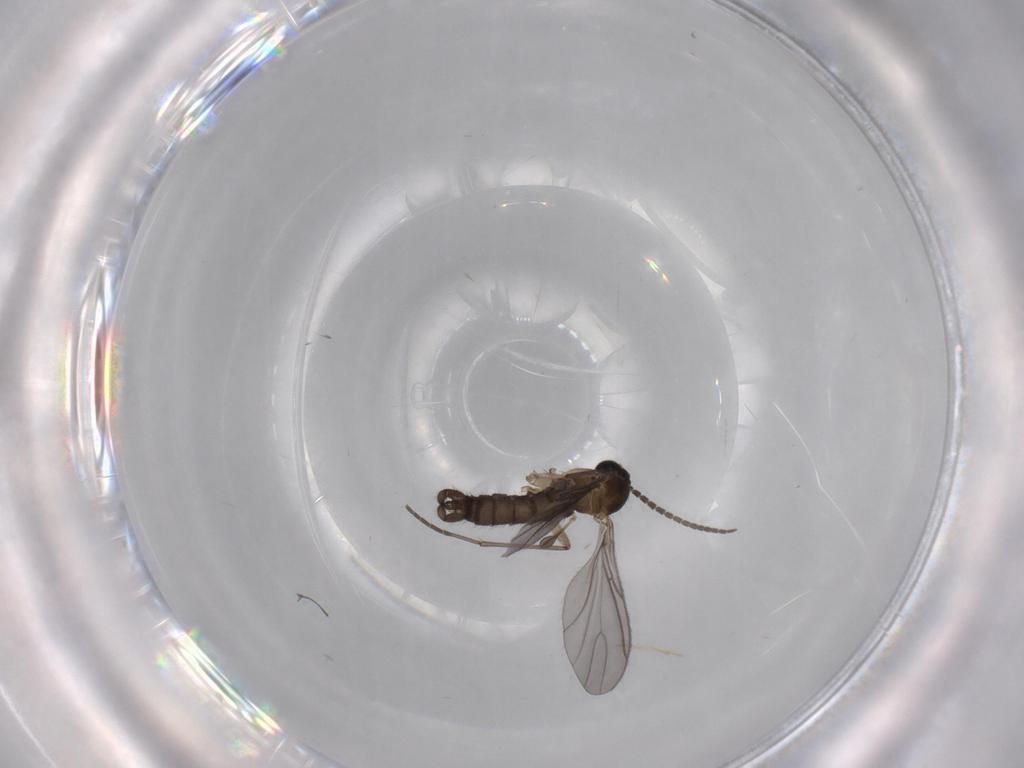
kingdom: Animalia
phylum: Arthropoda
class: Insecta
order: Diptera
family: Sciaridae
